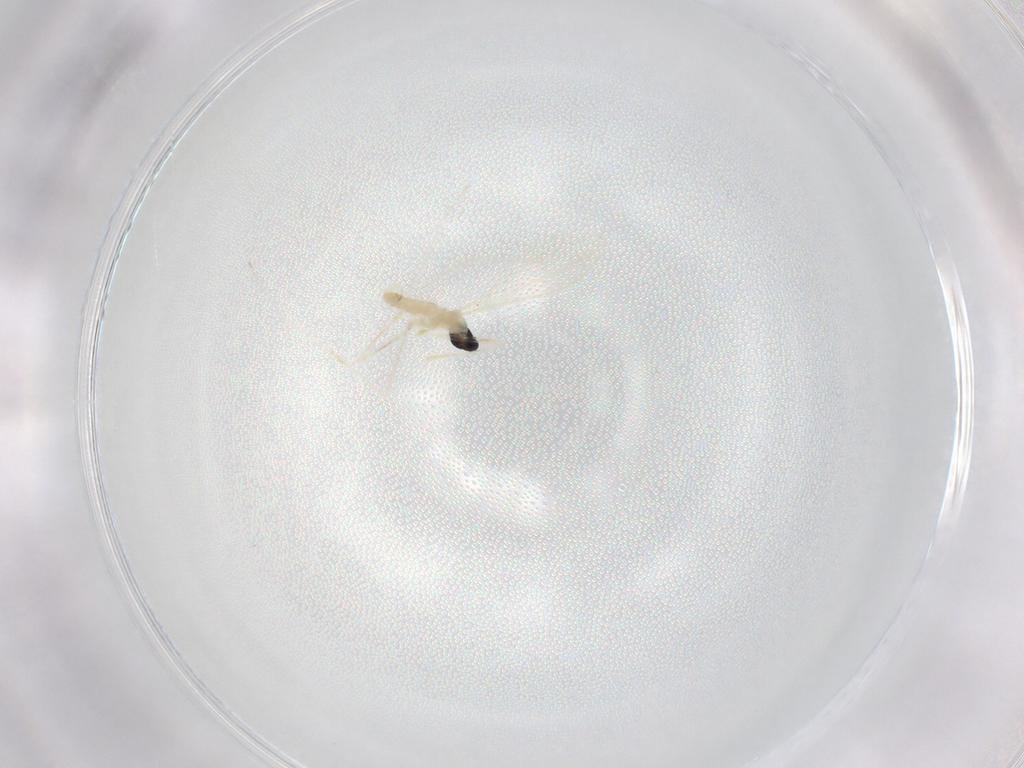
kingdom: Animalia
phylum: Arthropoda
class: Insecta
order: Diptera
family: Cecidomyiidae
